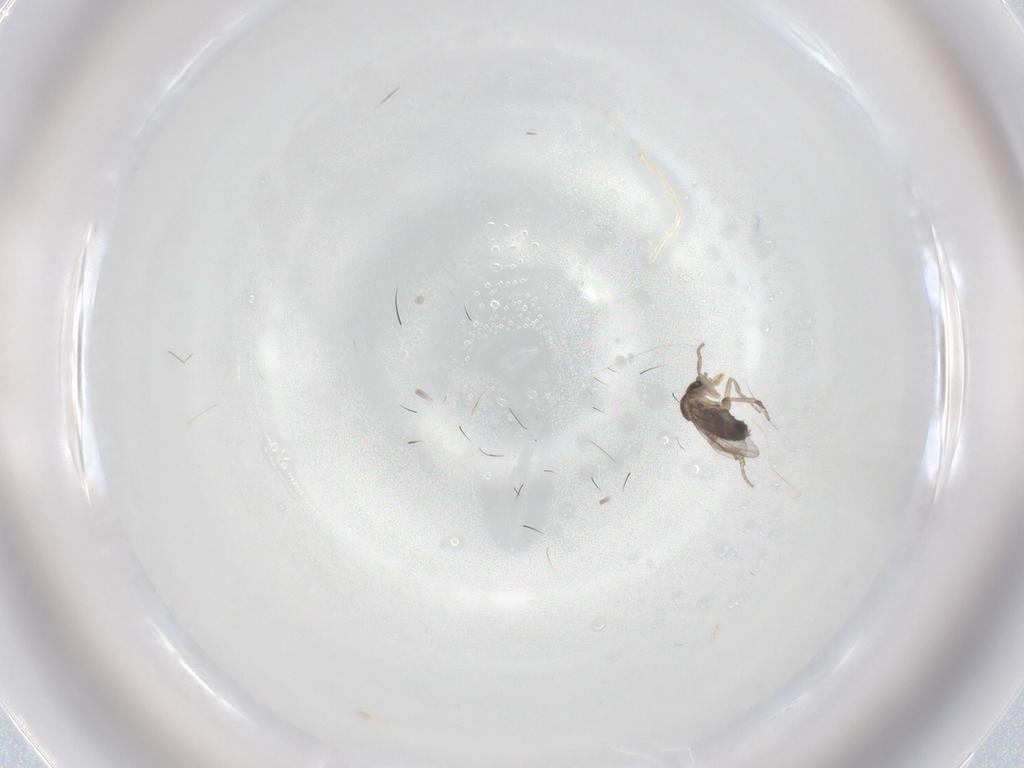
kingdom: Animalia
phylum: Arthropoda
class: Insecta
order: Diptera
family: Phoridae
